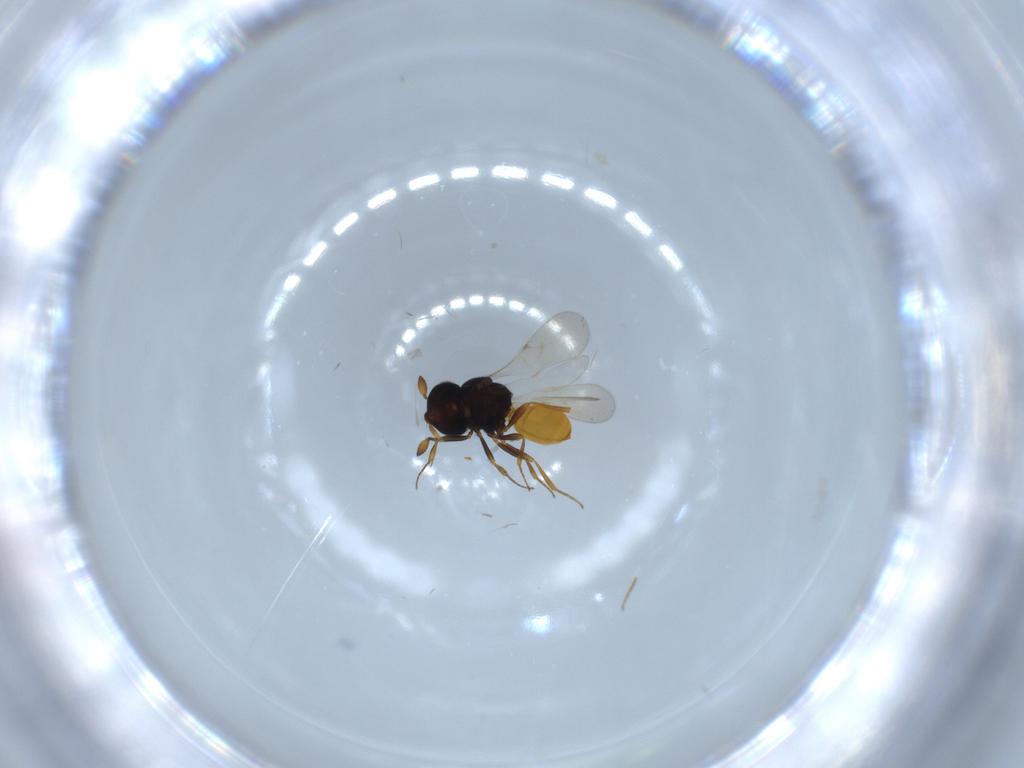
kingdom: Animalia
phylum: Arthropoda
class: Insecta
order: Hymenoptera
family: Scelionidae
